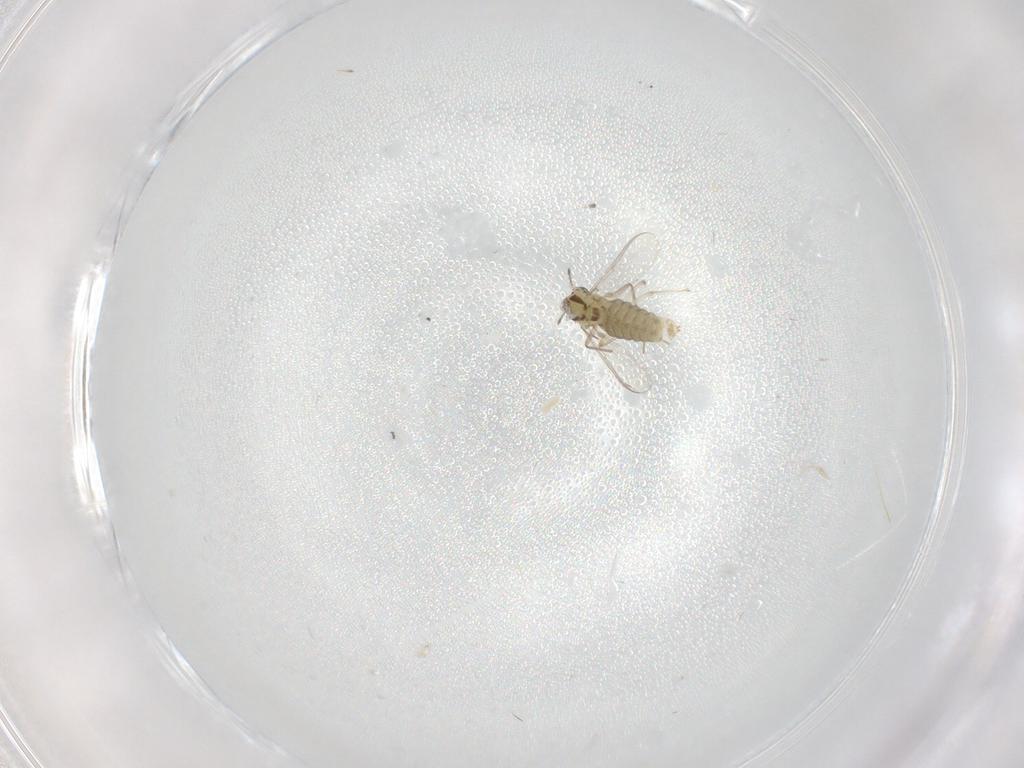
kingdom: Animalia
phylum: Arthropoda
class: Insecta
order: Diptera
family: Chironomidae
